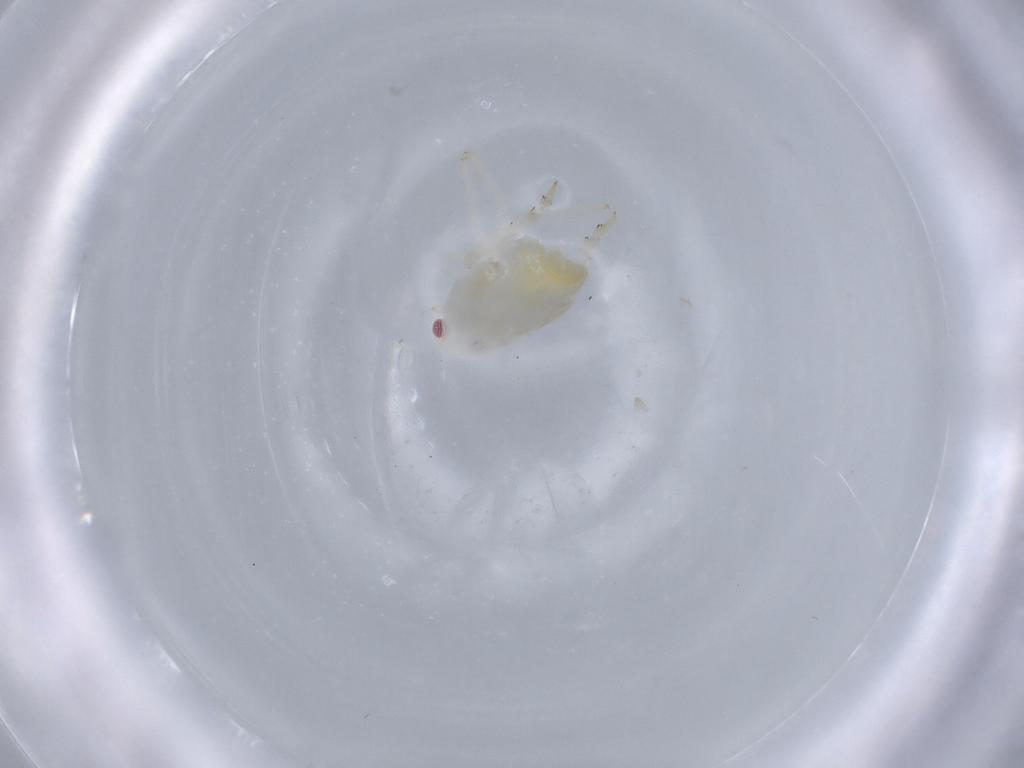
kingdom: Animalia
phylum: Arthropoda
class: Insecta
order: Hemiptera
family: Flatidae
